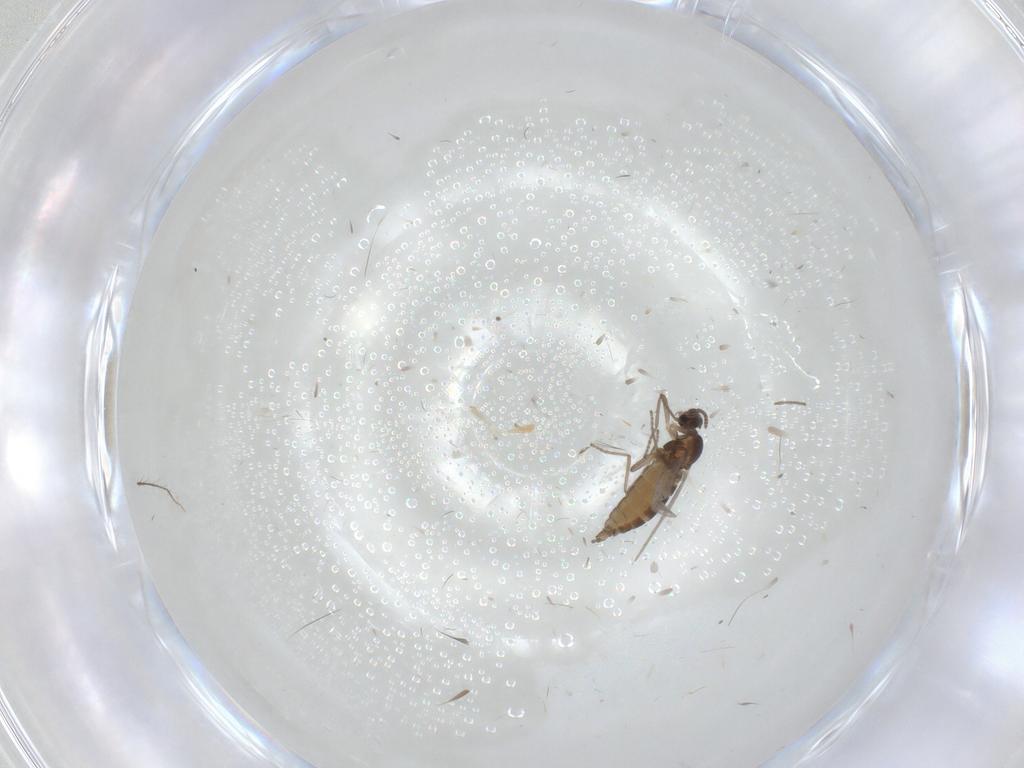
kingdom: Animalia
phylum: Arthropoda
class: Insecta
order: Diptera
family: Cecidomyiidae
